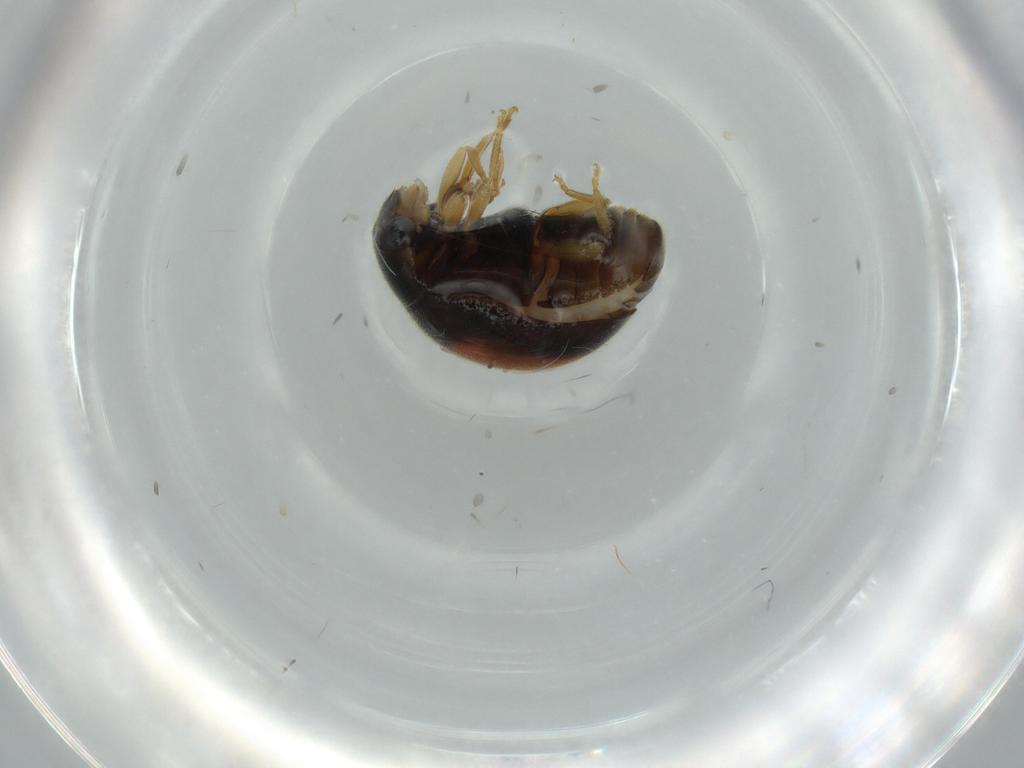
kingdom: Animalia
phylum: Arthropoda
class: Insecta
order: Coleoptera
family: Coccinellidae
